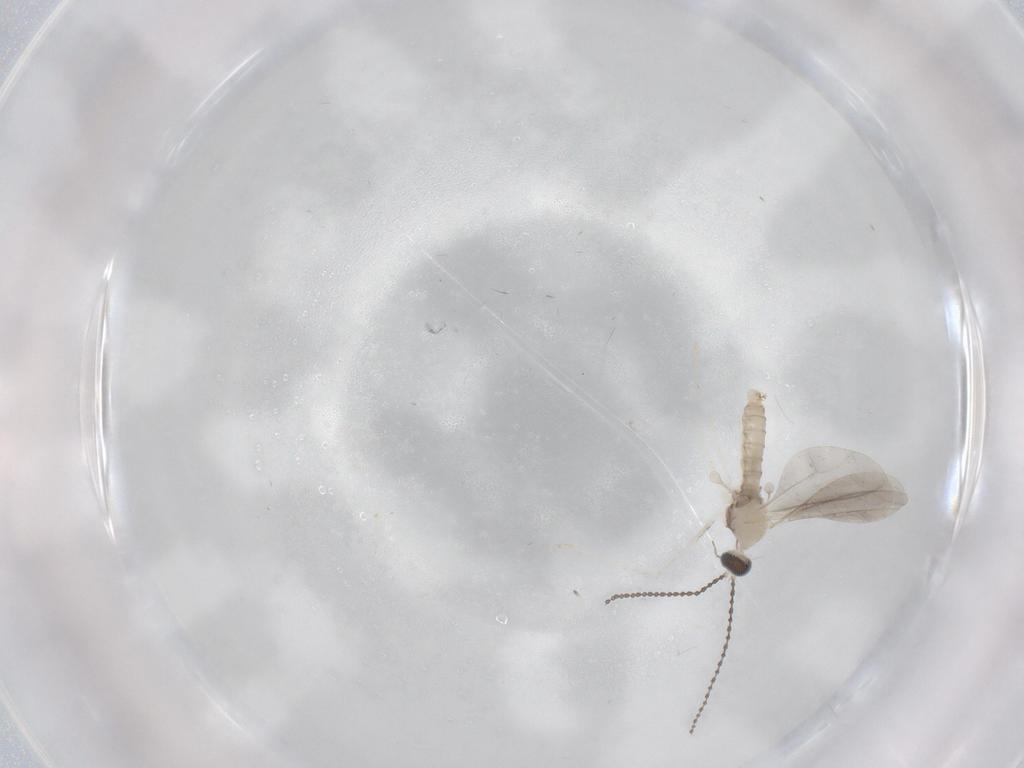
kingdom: Animalia
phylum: Arthropoda
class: Insecta
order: Diptera
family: Cecidomyiidae
